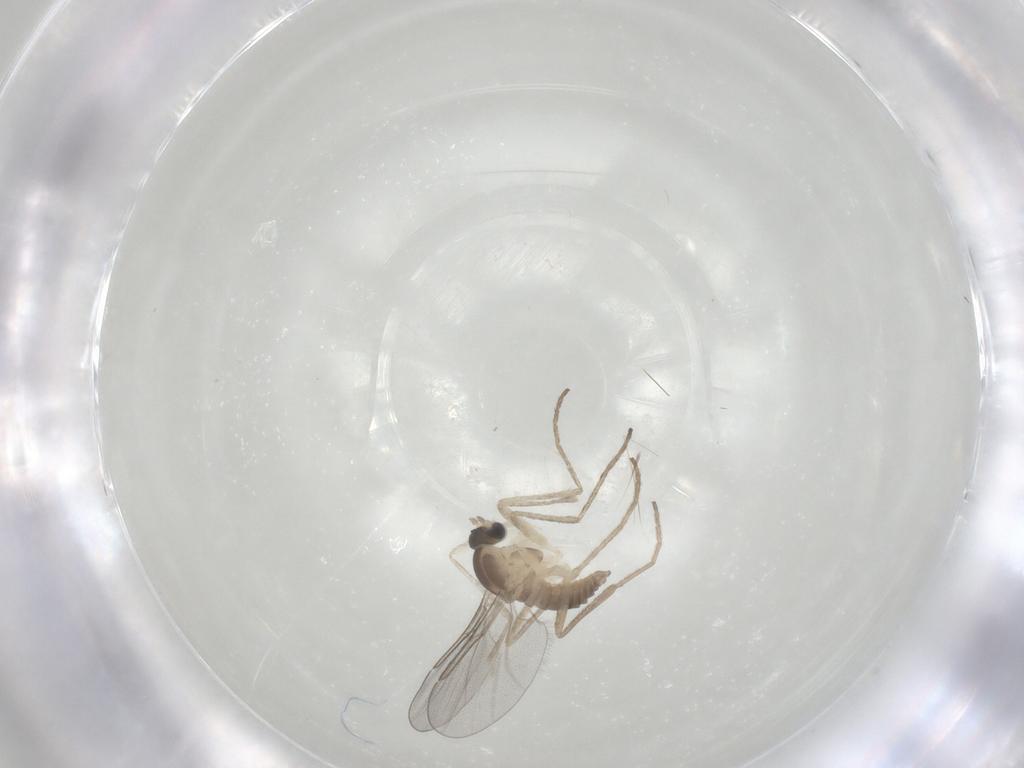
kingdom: Animalia
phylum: Arthropoda
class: Insecta
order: Diptera
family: Cecidomyiidae
